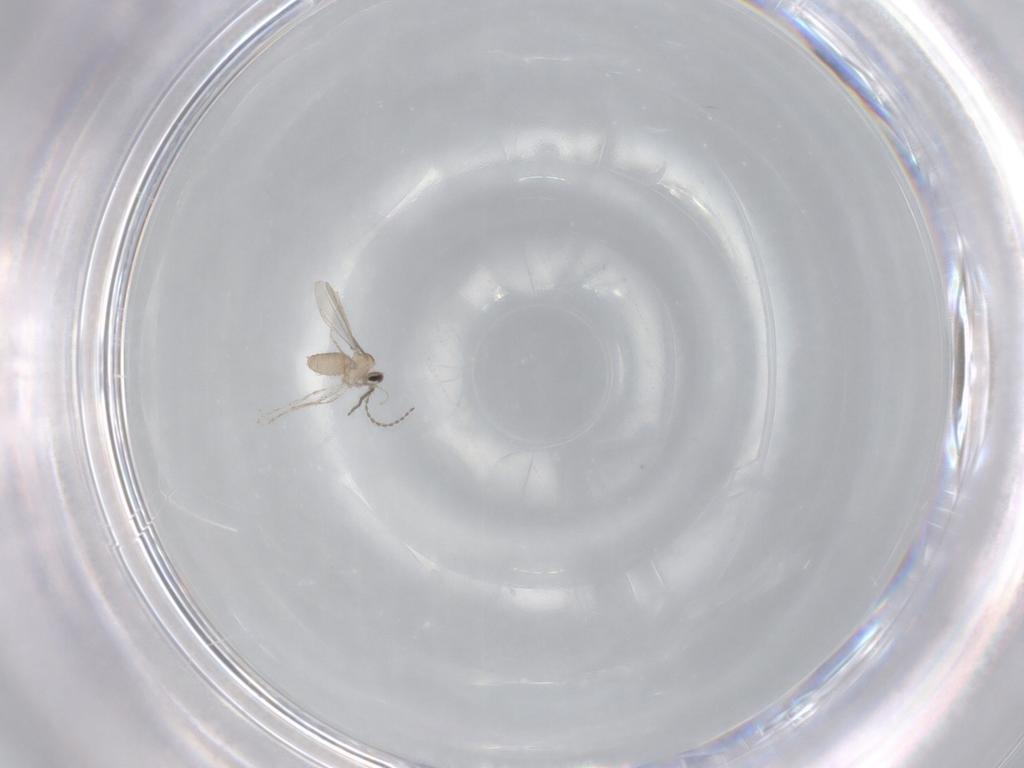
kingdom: Animalia
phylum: Arthropoda
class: Insecta
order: Diptera
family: Cecidomyiidae
